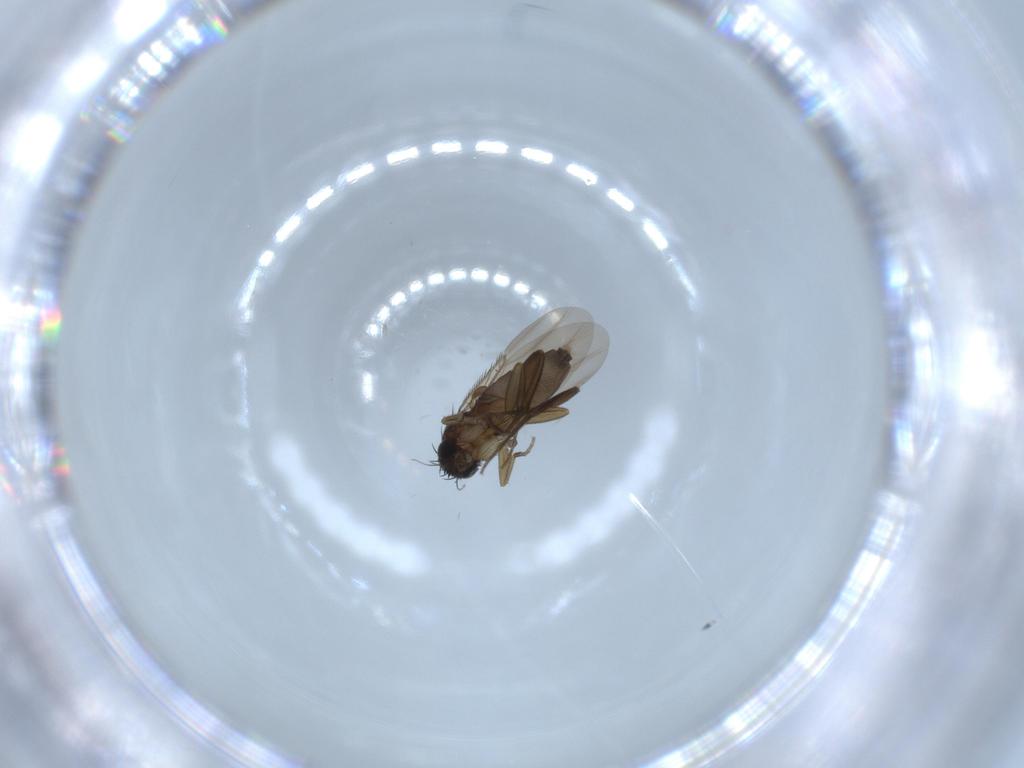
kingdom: Animalia
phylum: Arthropoda
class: Insecta
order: Diptera
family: Phoridae
